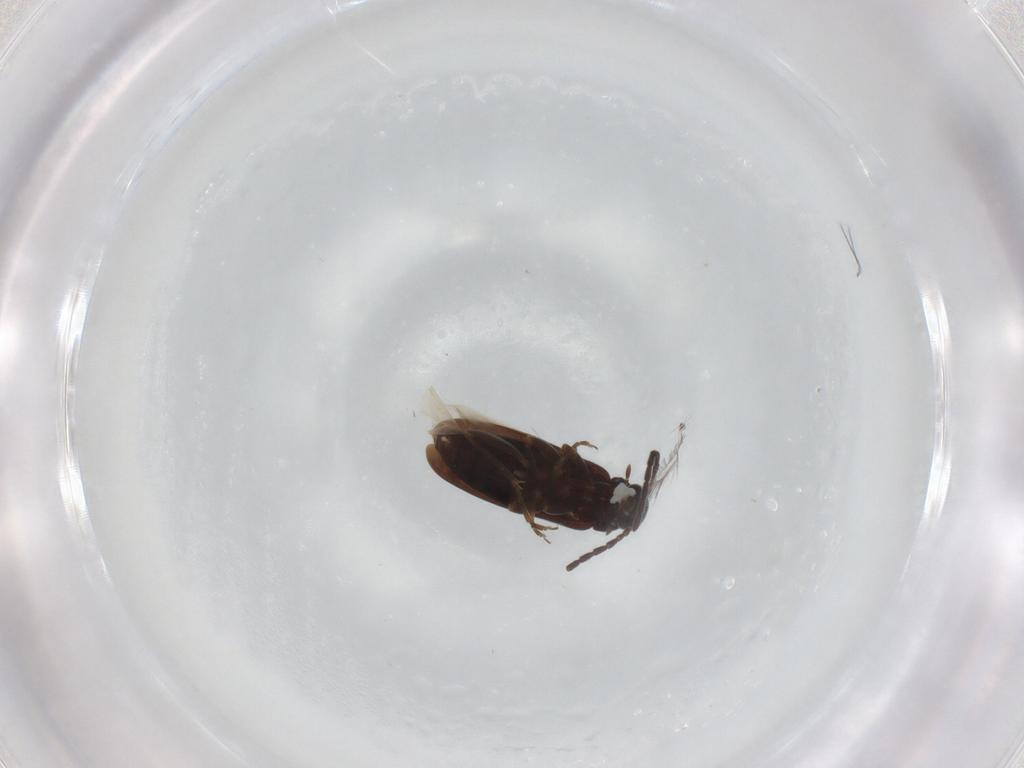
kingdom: Animalia
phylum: Arthropoda
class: Insecta
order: Coleoptera
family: Scraptiidae
